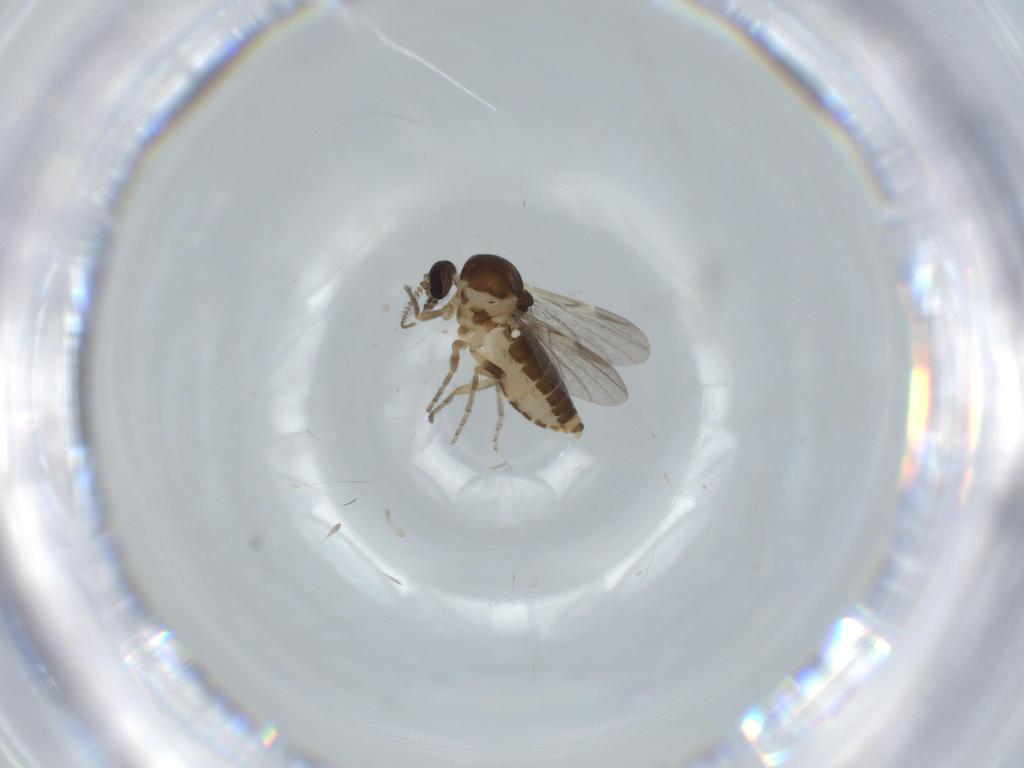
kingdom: Animalia
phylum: Arthropoda
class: Insecta
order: Diptera
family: Ceratopogonidae
